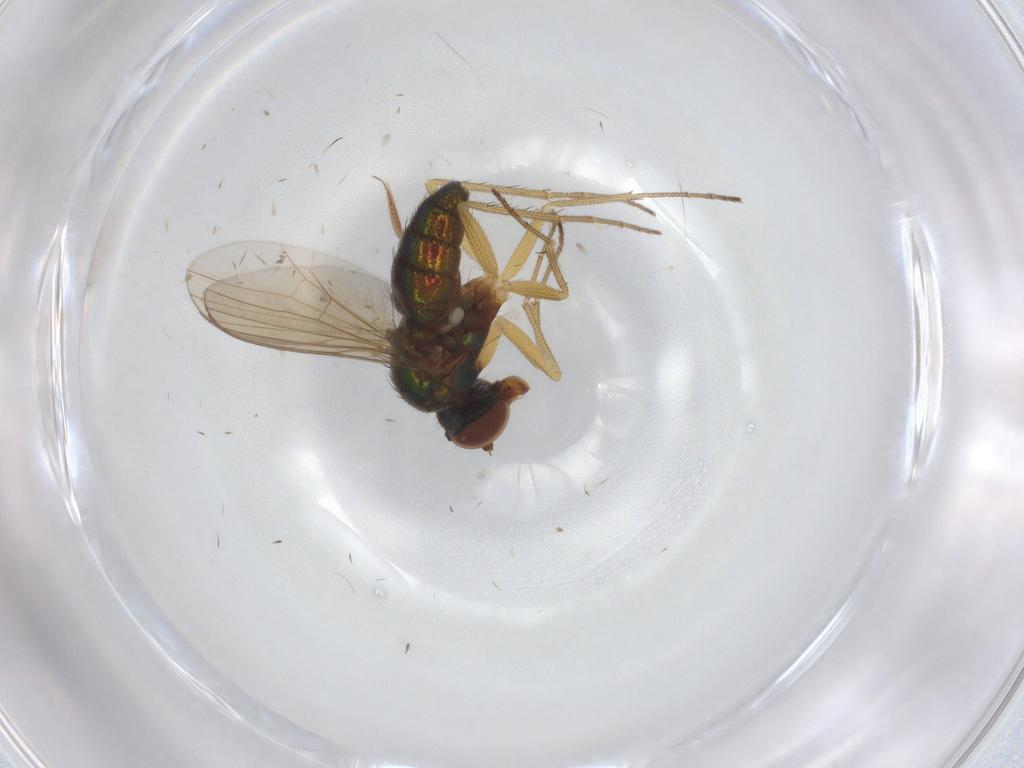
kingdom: Animalia
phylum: Arthropoda
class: Insecta
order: Diptera
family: Dolichopodidae
